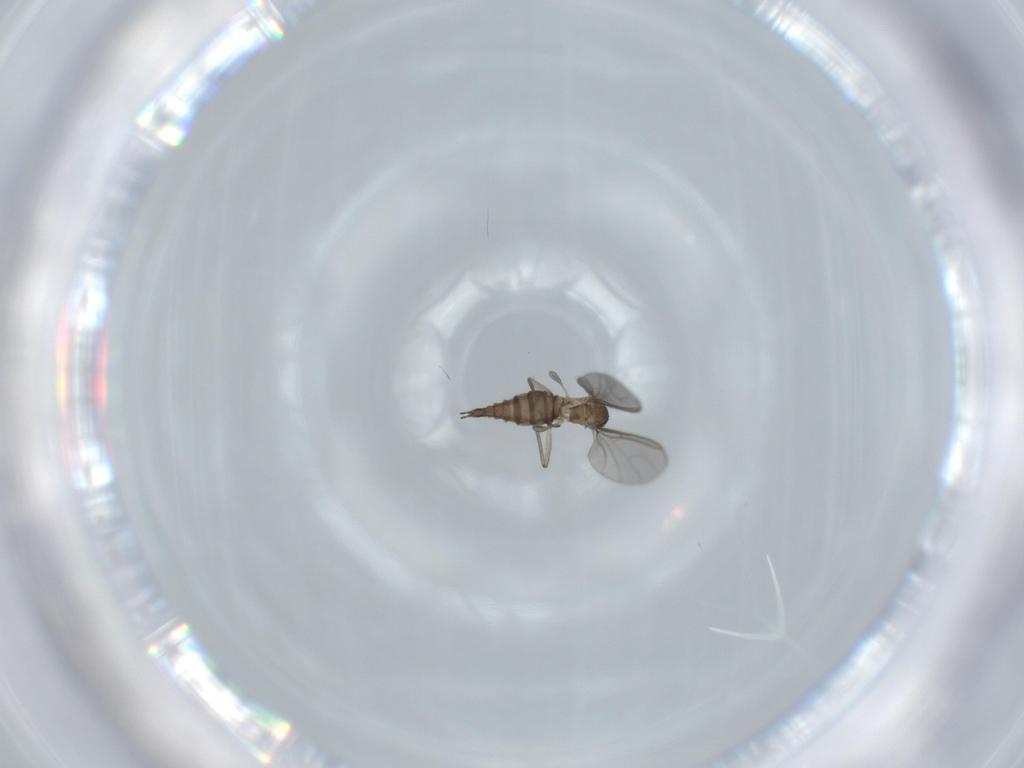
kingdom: Animalia
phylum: Arthropoda
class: Insecta
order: Diptera
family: Sciaridae
